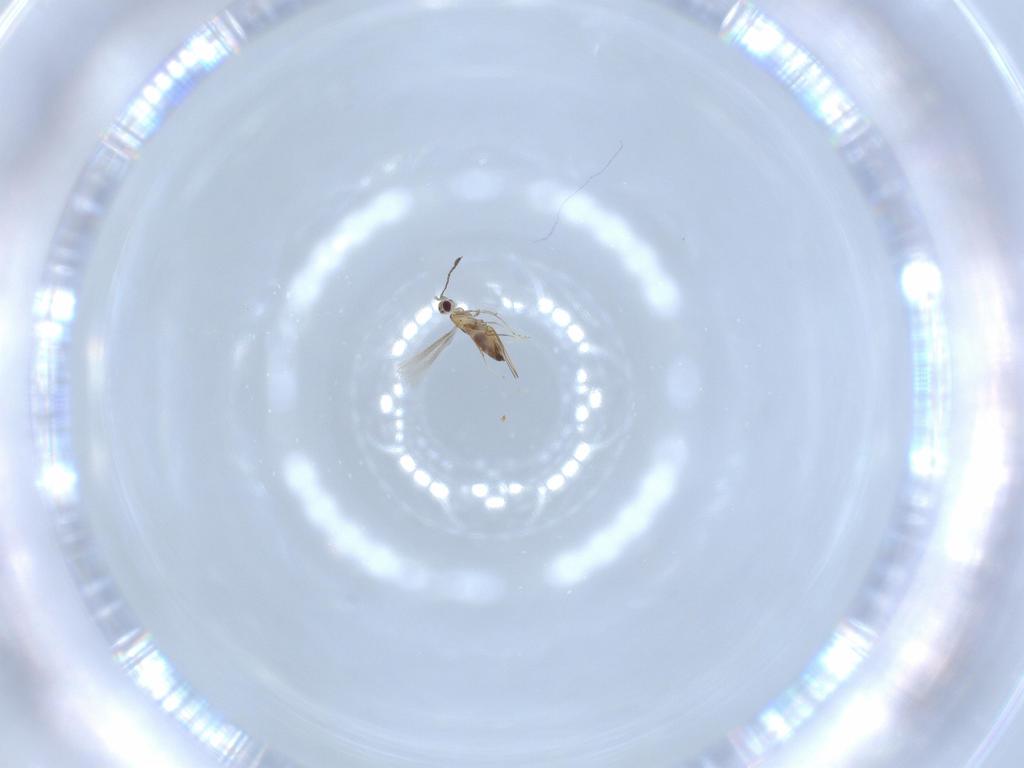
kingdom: Animalia
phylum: Arthropoda
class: Insecta
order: Hymenoptera
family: Mymaridae
